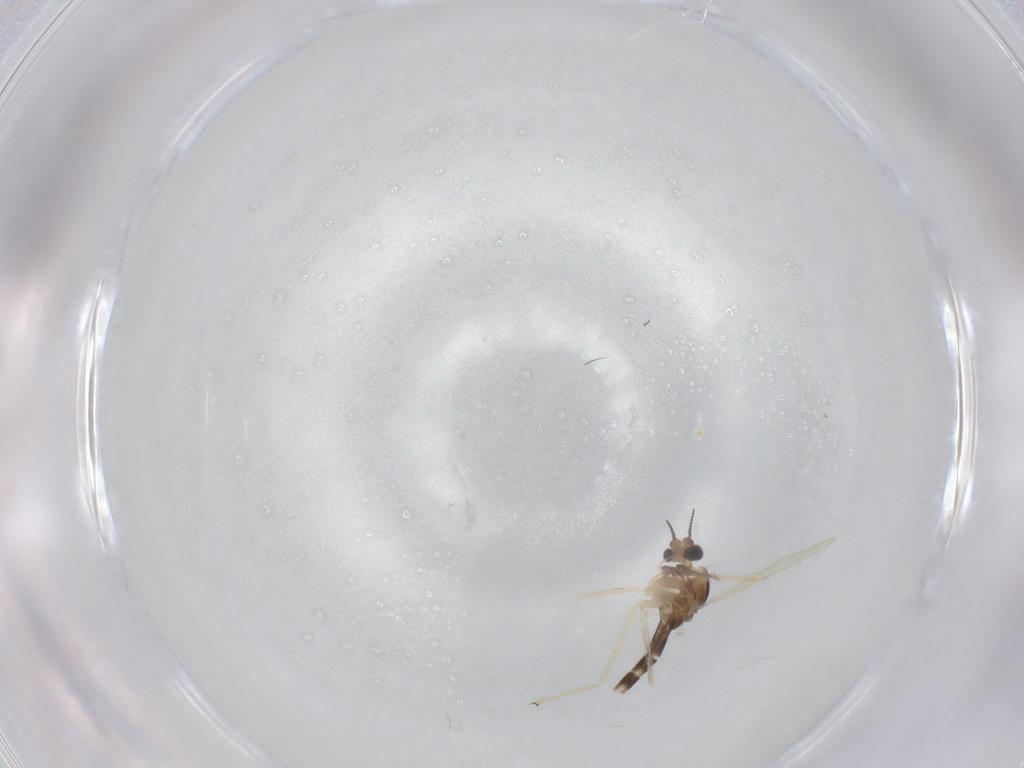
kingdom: Animalia
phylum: Arthropoda
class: Insecta
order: Diptera
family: Chironomidae
